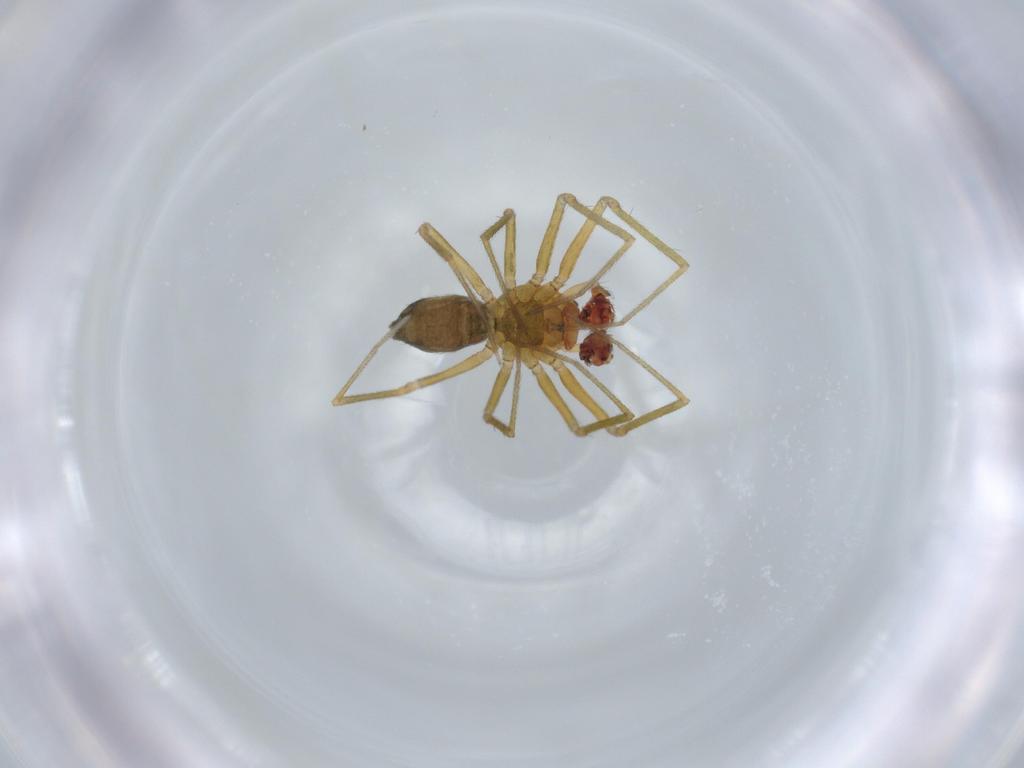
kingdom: Animalia
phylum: Arthropoda
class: Arachnida
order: Araneae
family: Linyphiidae
